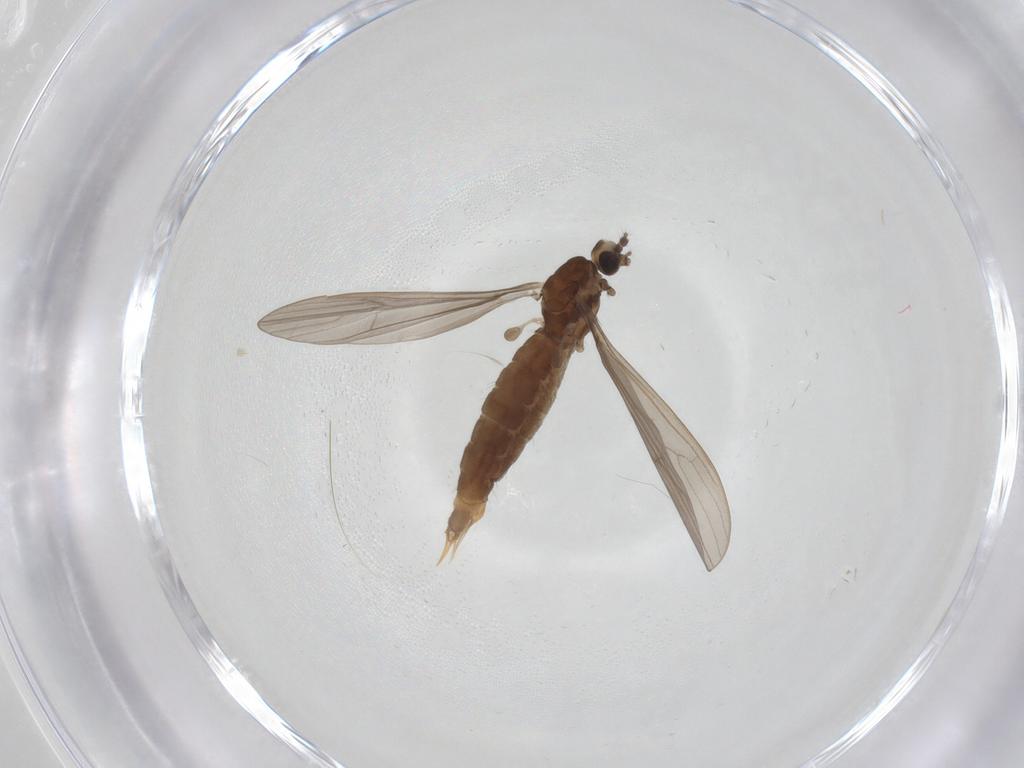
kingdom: Animalia
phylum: Arthropoda
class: Insecta
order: Diptera
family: Limoniidae
